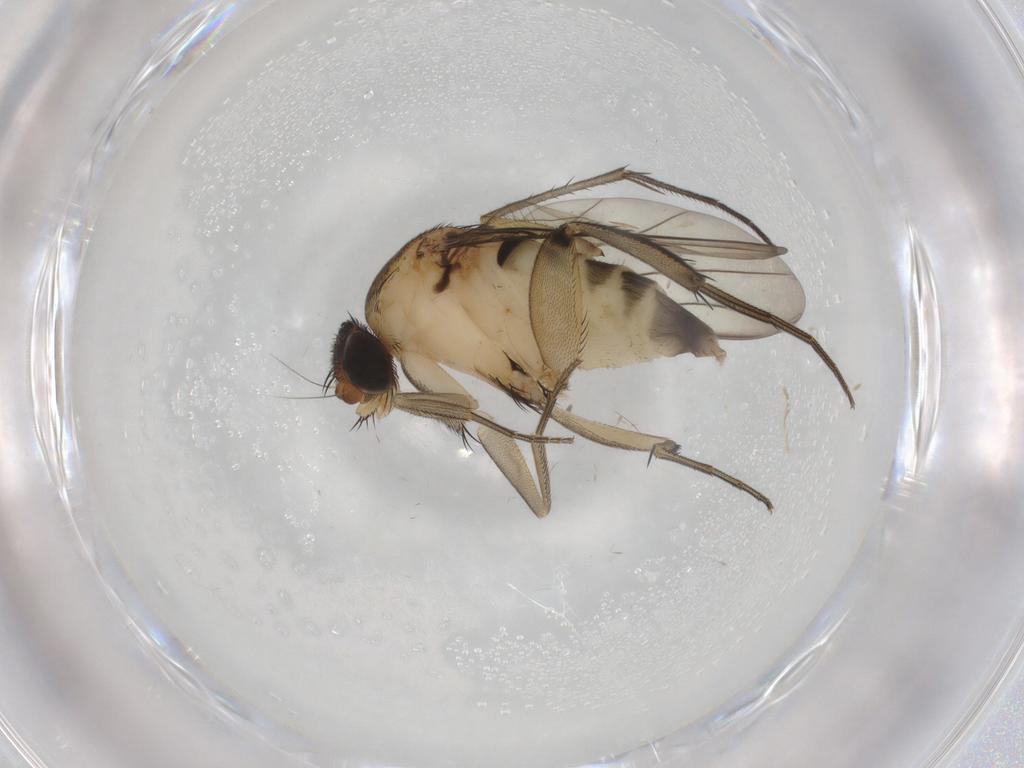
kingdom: Animalia
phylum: Arthropoda
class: Insecta
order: Diptera
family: Phoridae
